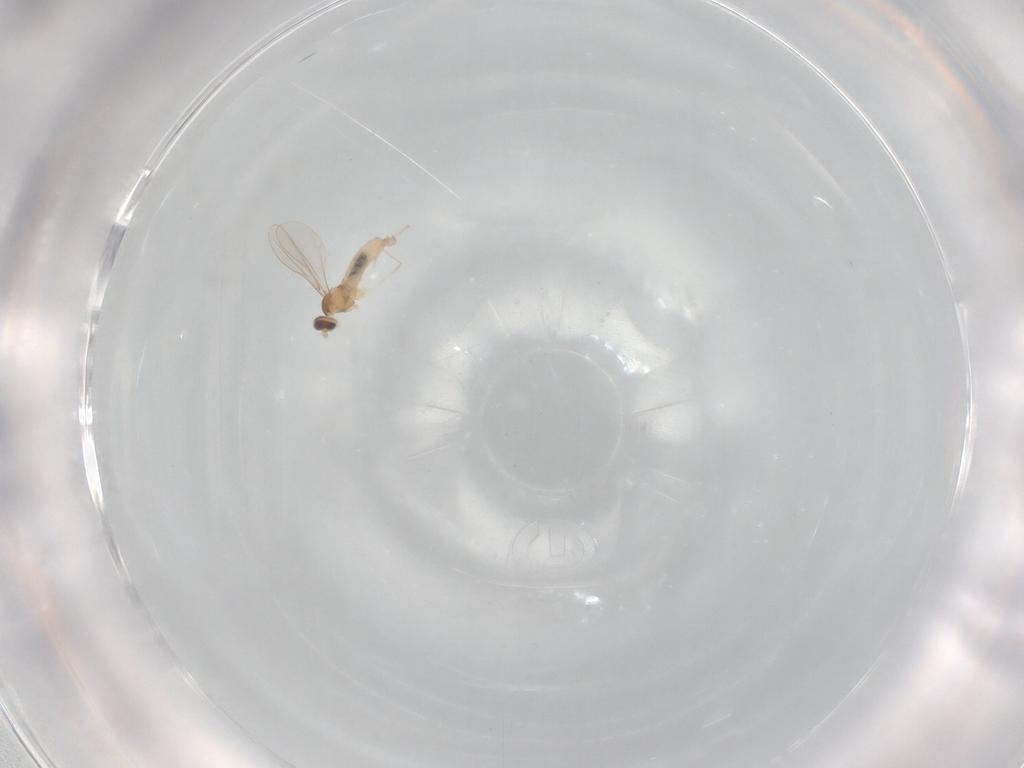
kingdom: Animalia
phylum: Arthropoda
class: Insecta
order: Diptera
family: Cecidomyiidae
